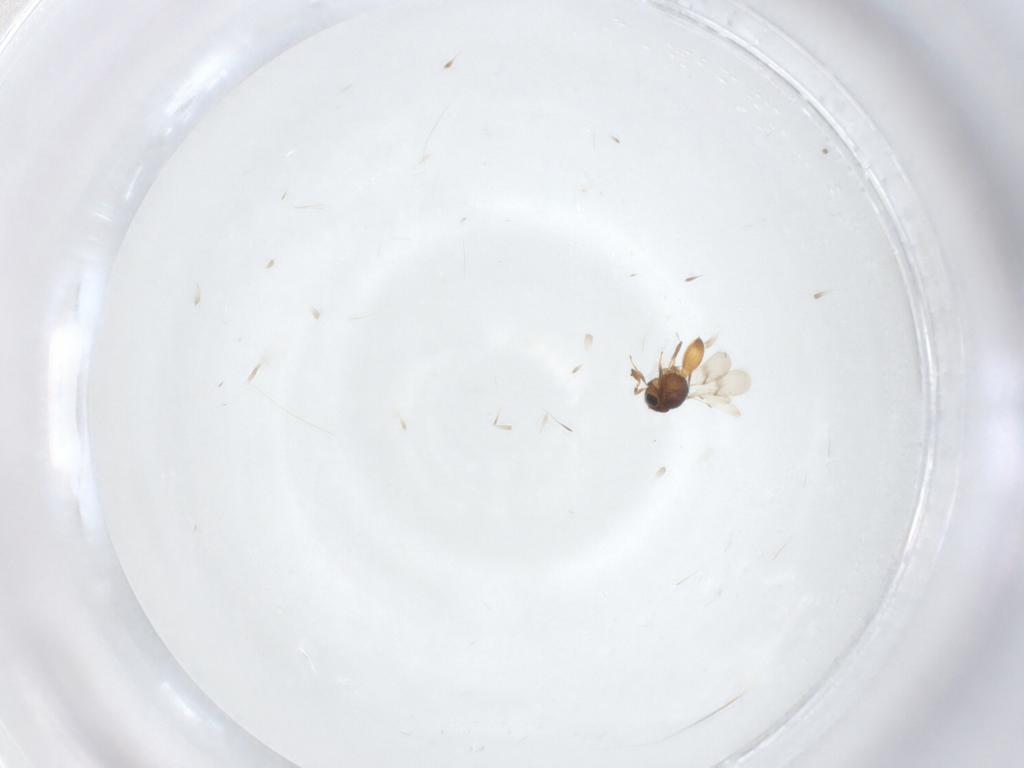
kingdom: Animalia
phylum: Arthropoda
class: Insecta
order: Hymenoptera
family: Scelionidae
